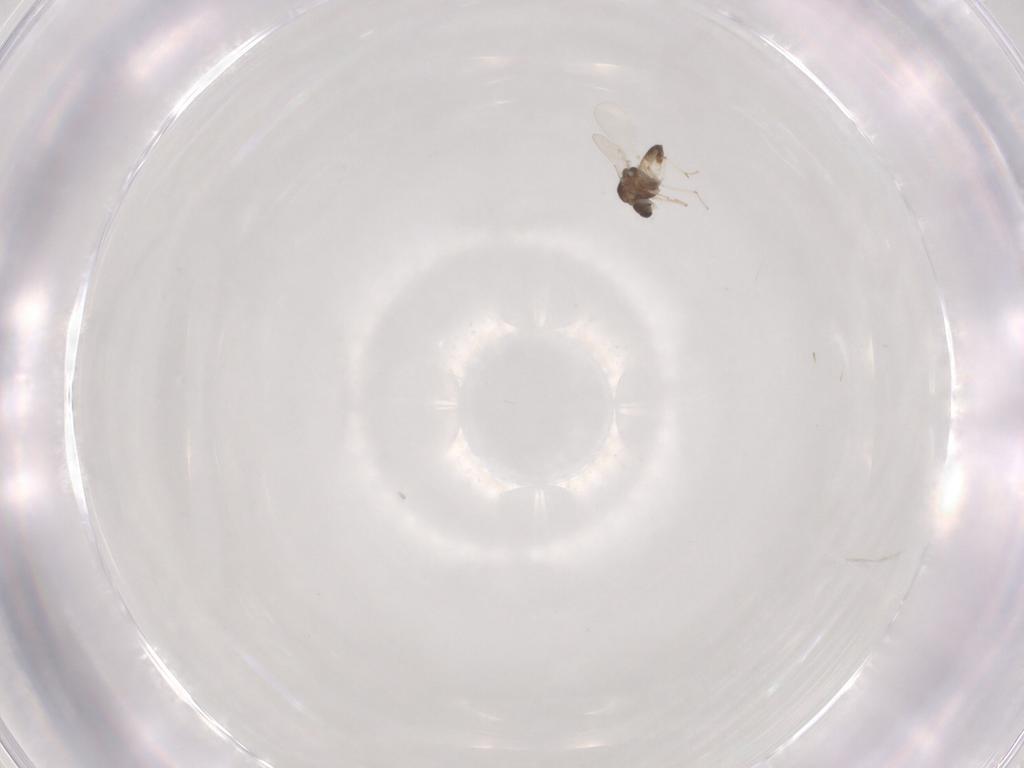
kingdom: Animalia
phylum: Arthropoda
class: Insecta
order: Diptera
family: Chironomidae
